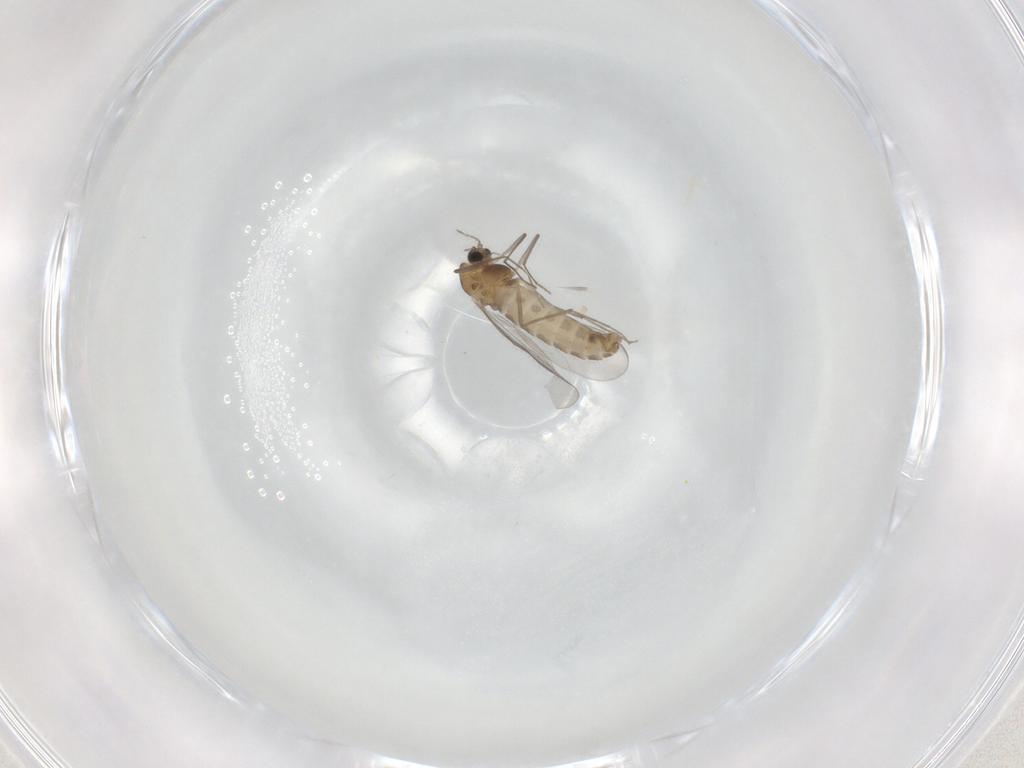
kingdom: Animalia
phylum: Arthropoda
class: Insecta
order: Diptera
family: Chironomidae
